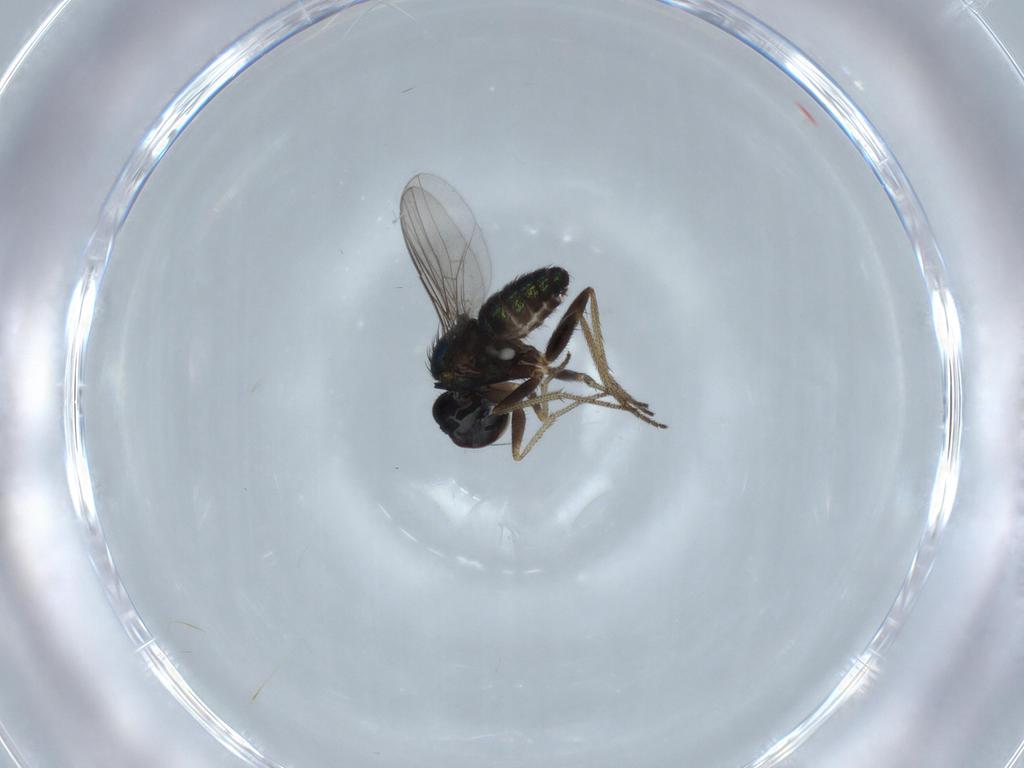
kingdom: Animalia
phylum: Arthropoda
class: Insecta
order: Diptera
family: Dolichopodidae
